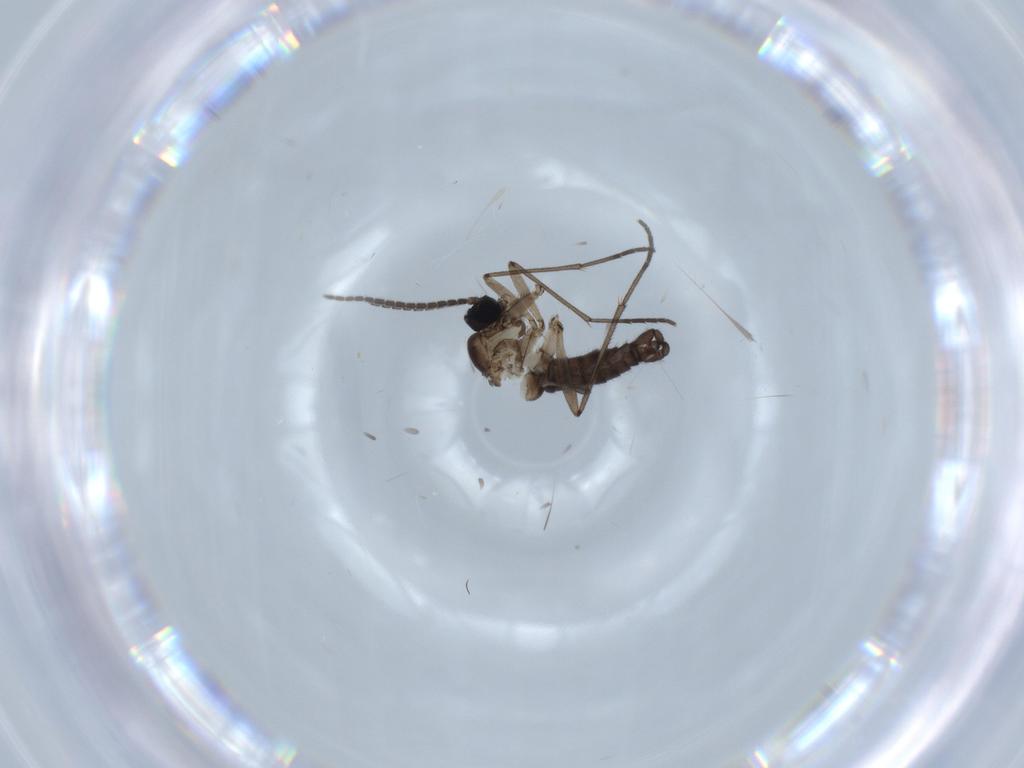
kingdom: Animalia
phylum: Arthropoda
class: Insecta
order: Diptera
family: Sciaridae
